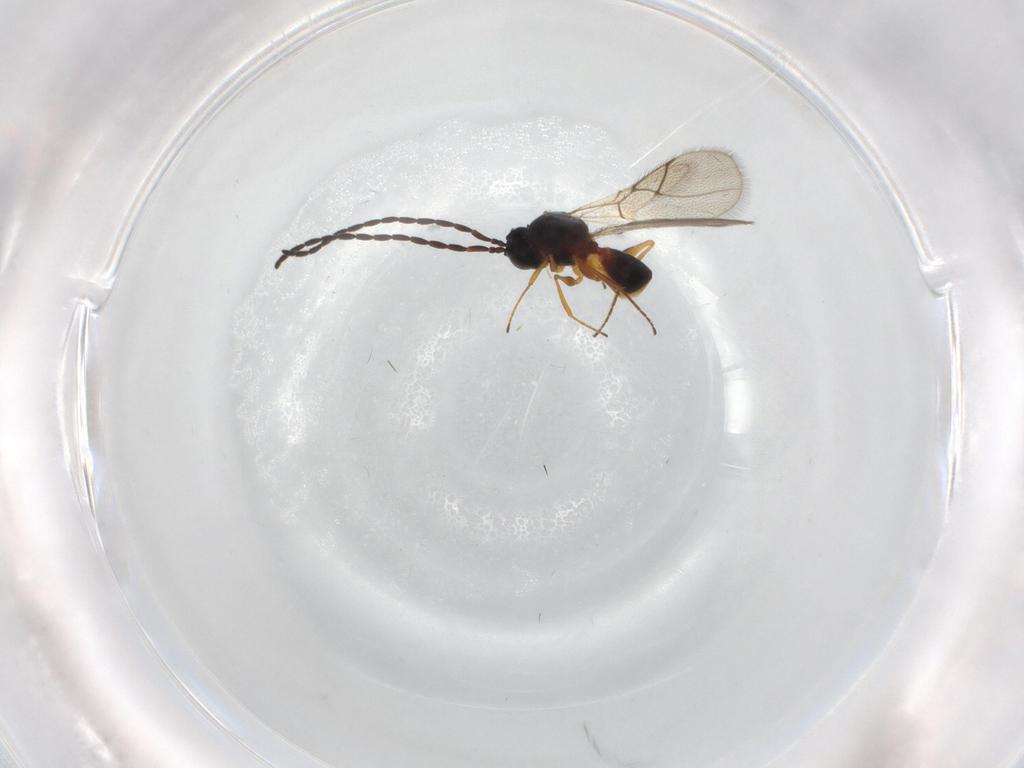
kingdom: Animalia
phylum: Arthropoda
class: Insecta
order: Hymenoptera
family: Figitidae
